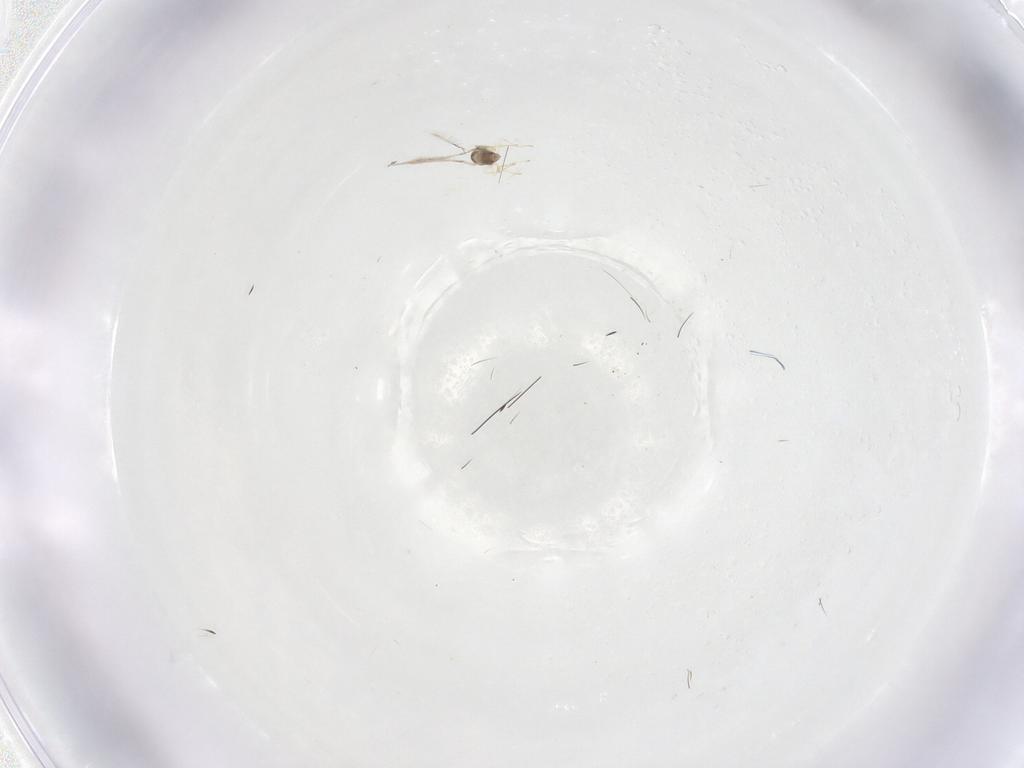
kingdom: Animalia
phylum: Arthropoda
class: Insecta
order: Hymenoptera
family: Mymaridae
